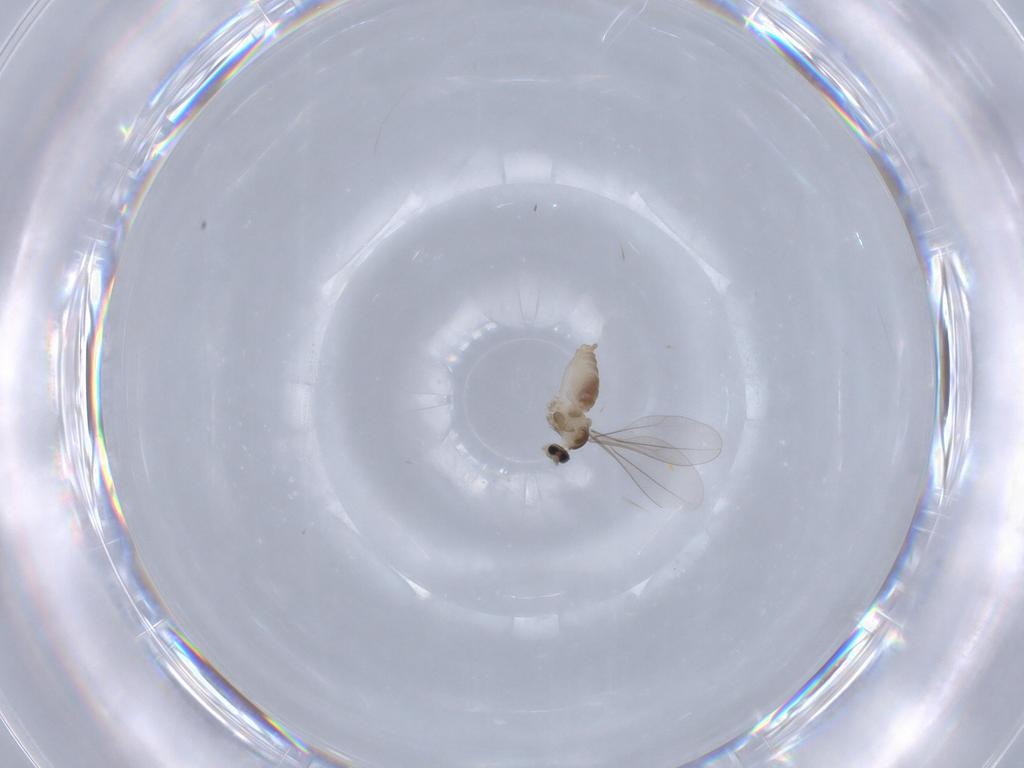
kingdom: Animalia
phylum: Arthropoda
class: Insecta
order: Diptera
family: Cecidomyiidae
